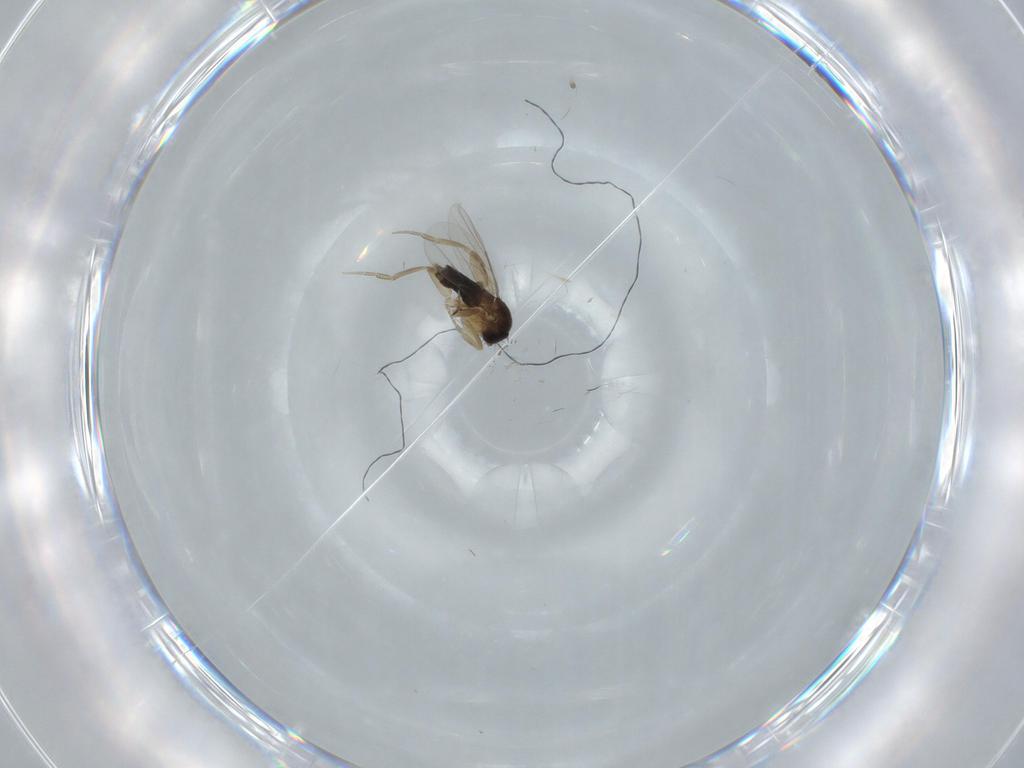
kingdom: Animalia
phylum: Arthropoda
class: Insecta
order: Diptera
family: Phoridae
